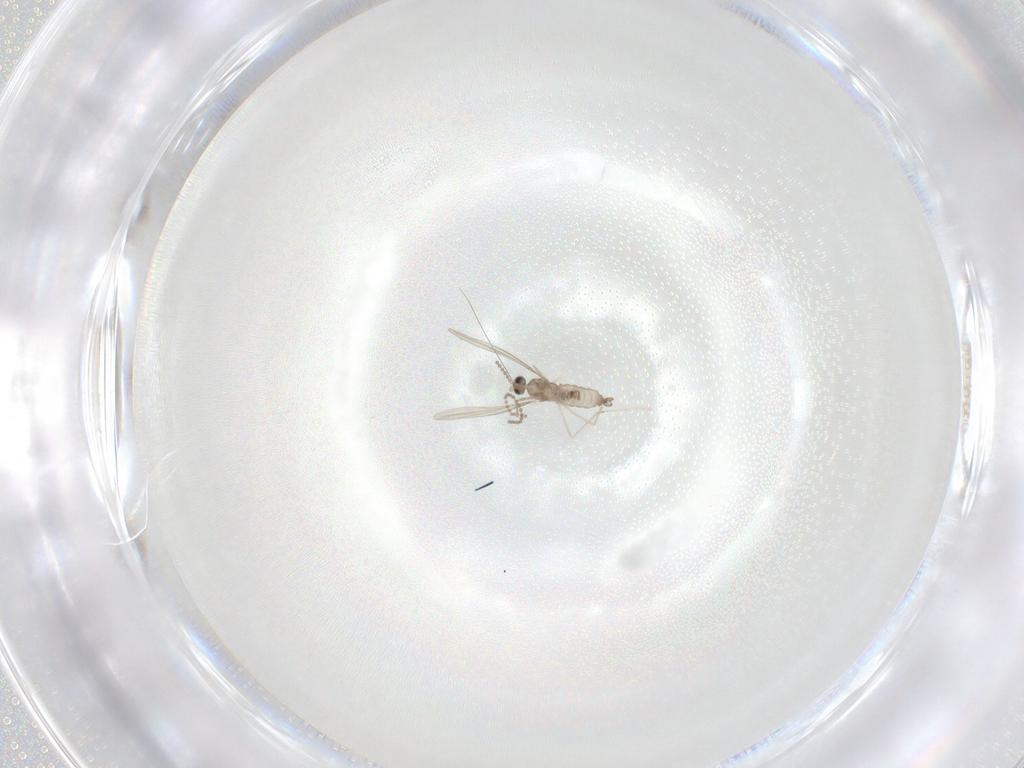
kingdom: Animalia
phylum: Arthropoda
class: Insecta
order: Diptera
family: Cecidomyiidae
